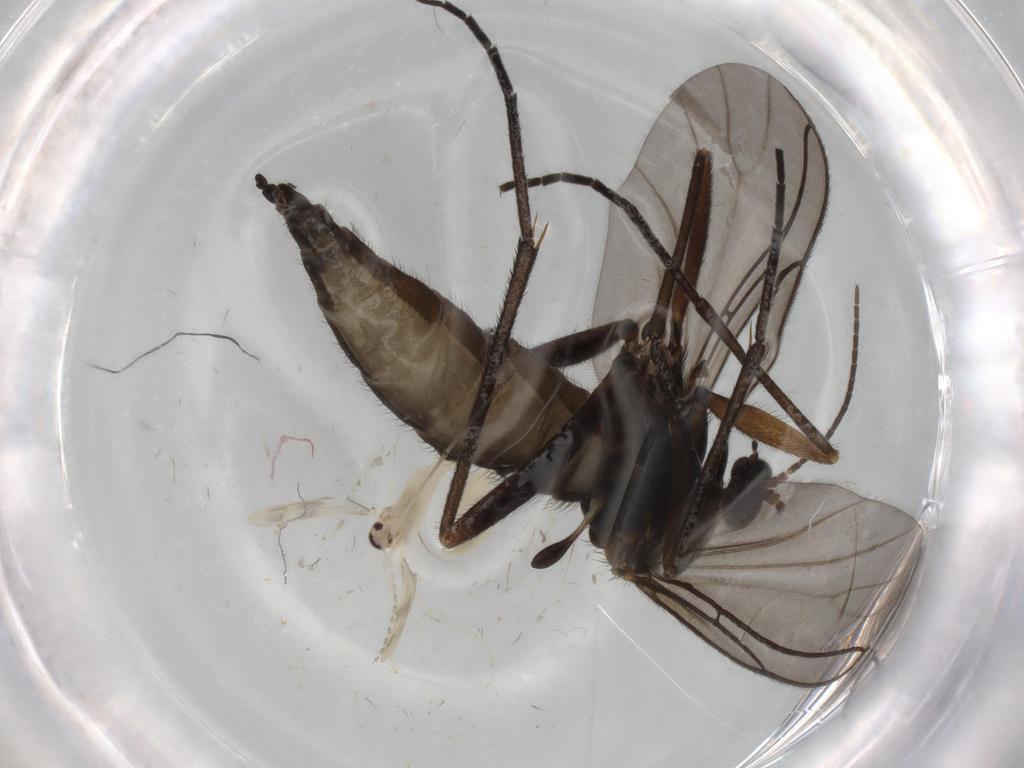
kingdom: Animalia
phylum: Arthropoda
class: Insecta
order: Diptera
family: Cecidomyiidae
